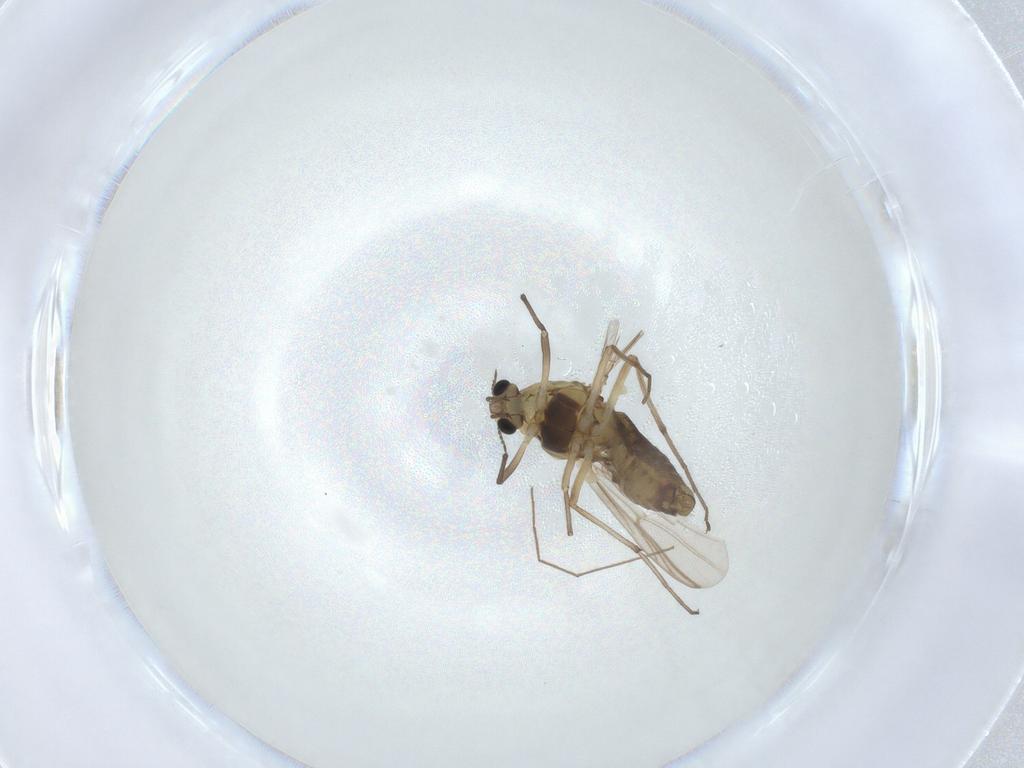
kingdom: Animalia
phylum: Arthropoda
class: Insecta
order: Diptera
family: Chironomidae
